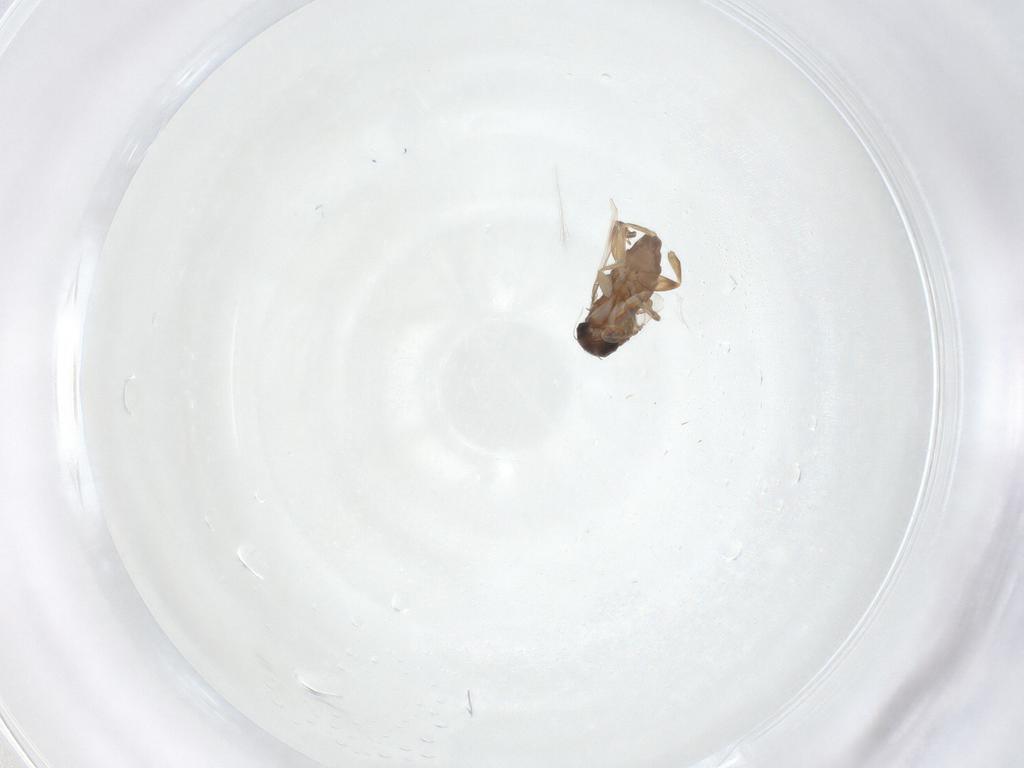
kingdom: Animalia
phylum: Arthropoda
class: Insecta
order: Diptera
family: Phoridae
